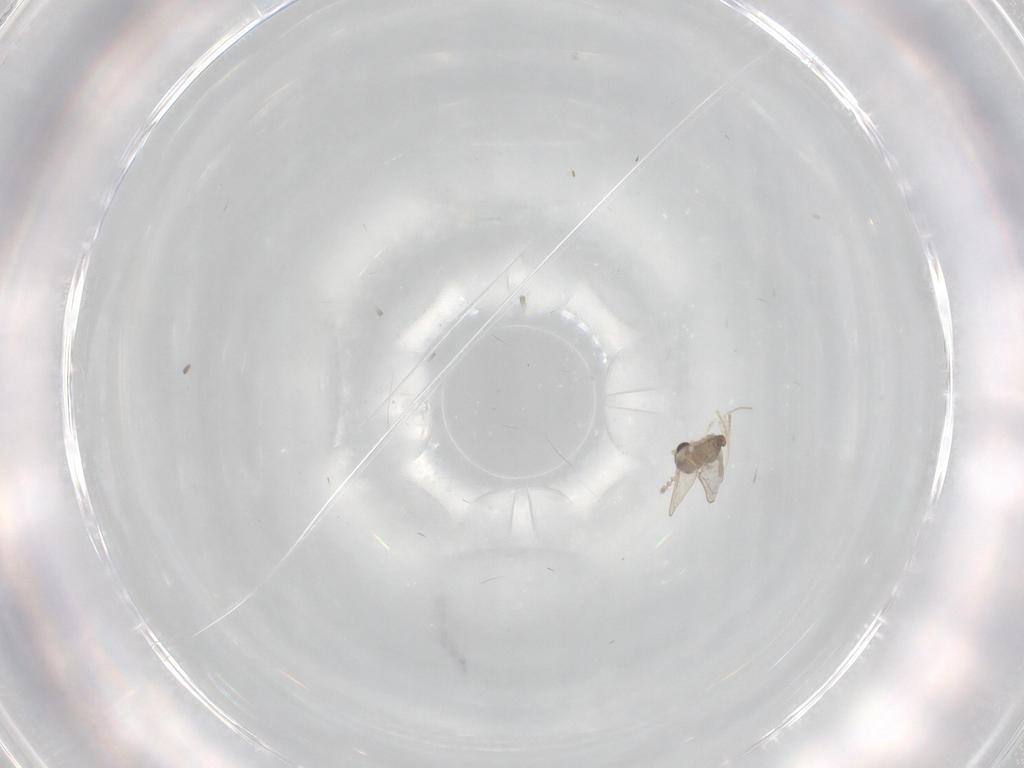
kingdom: Animalia
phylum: Arthropoda
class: Insecta
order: Diptera
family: Cecidomyiidae
